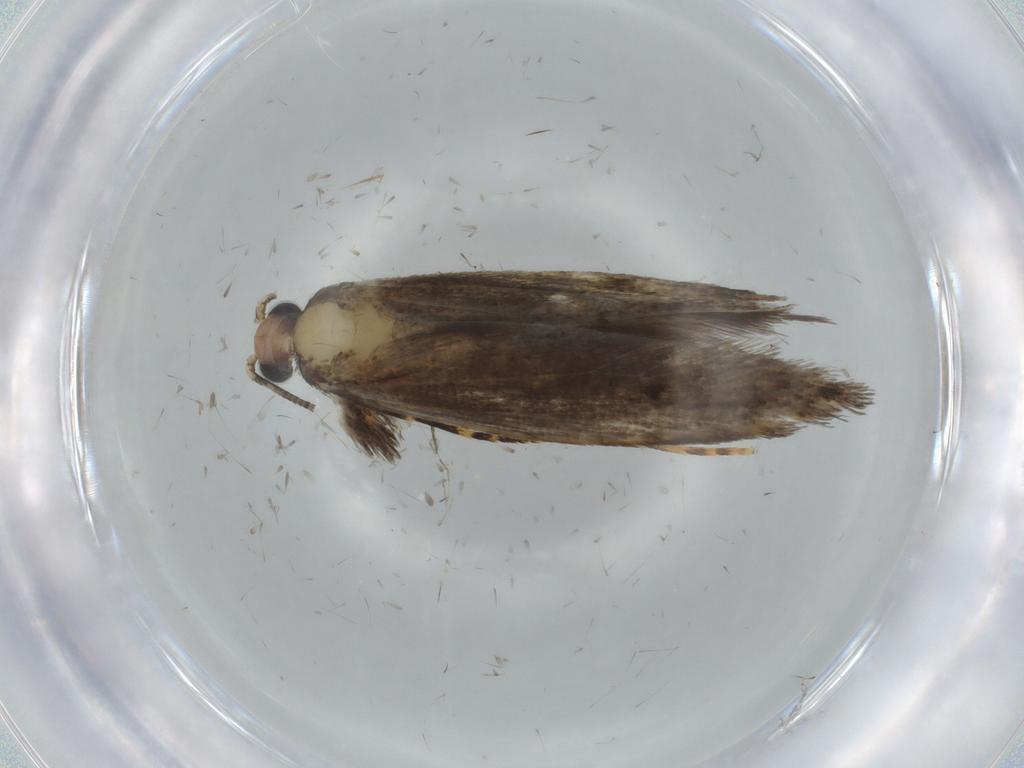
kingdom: Animalia
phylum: Arthropoda
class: Insecta
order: Lepidoptera
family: Tineidae
